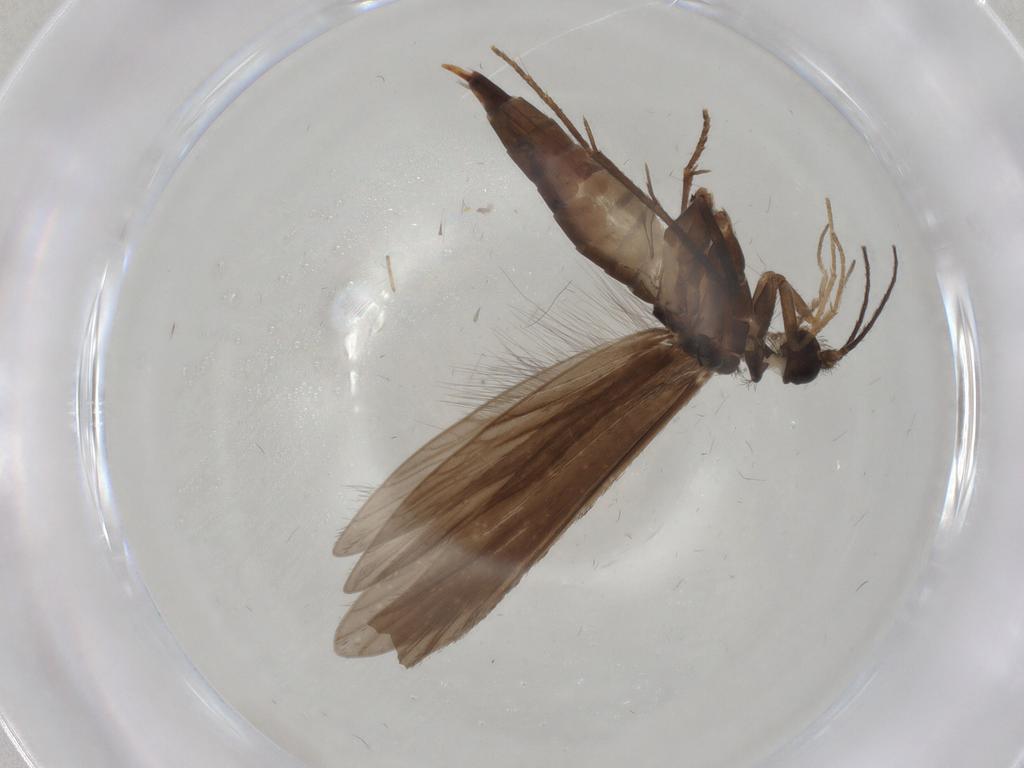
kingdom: Animalia
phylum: Arthropoda
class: Insecta
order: Trichoptera
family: Xiphocentronidae
